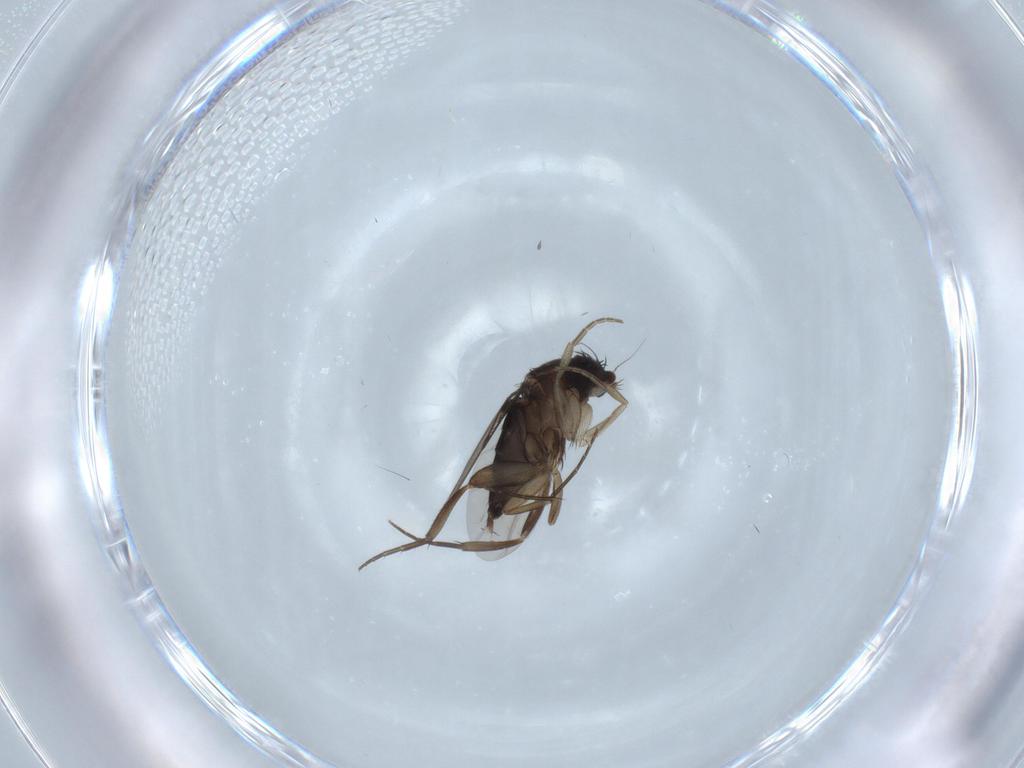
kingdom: Animalia
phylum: Arthropoda
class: Insecta
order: Diptera
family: Phoridae
